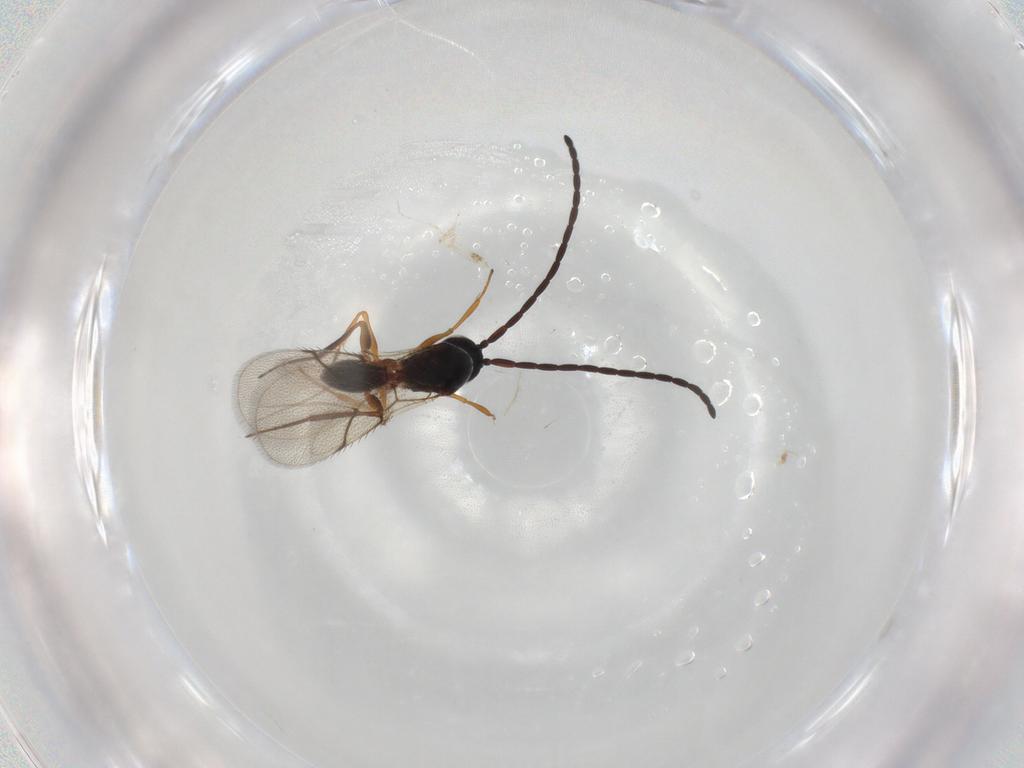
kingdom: Animalia
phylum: Arthropoda
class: Insecta
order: Hymenoptera
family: Figitidae
